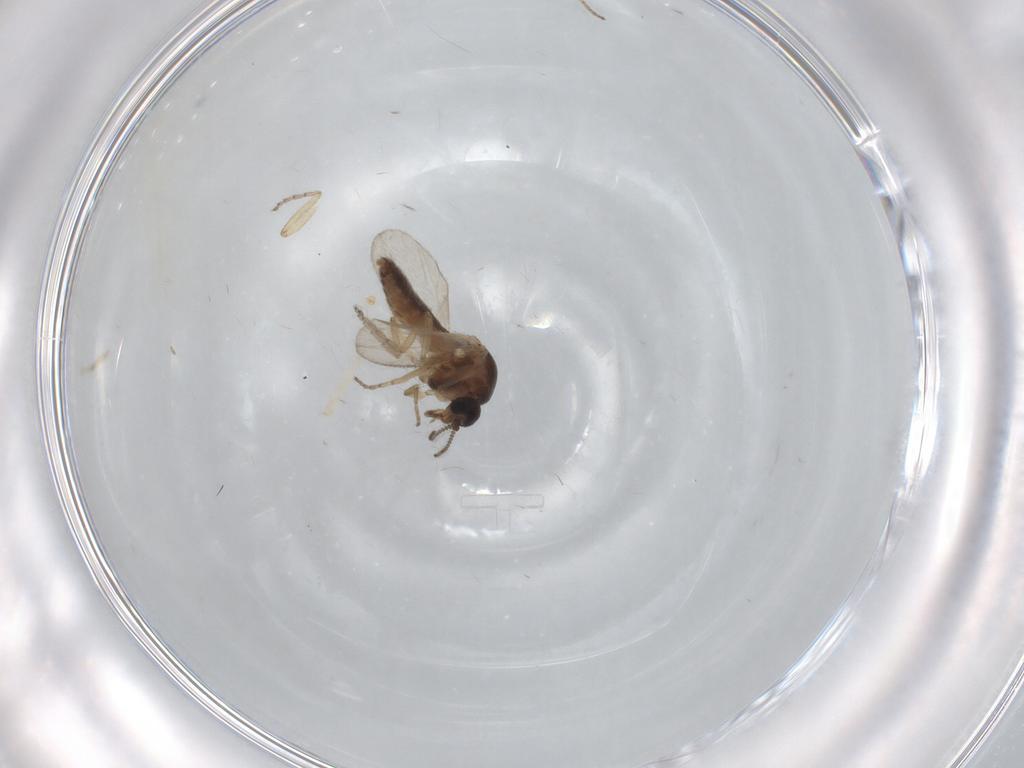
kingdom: Animalia
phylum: Arthropoda
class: Insecta
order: Diptera
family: Ceratopogonidae
